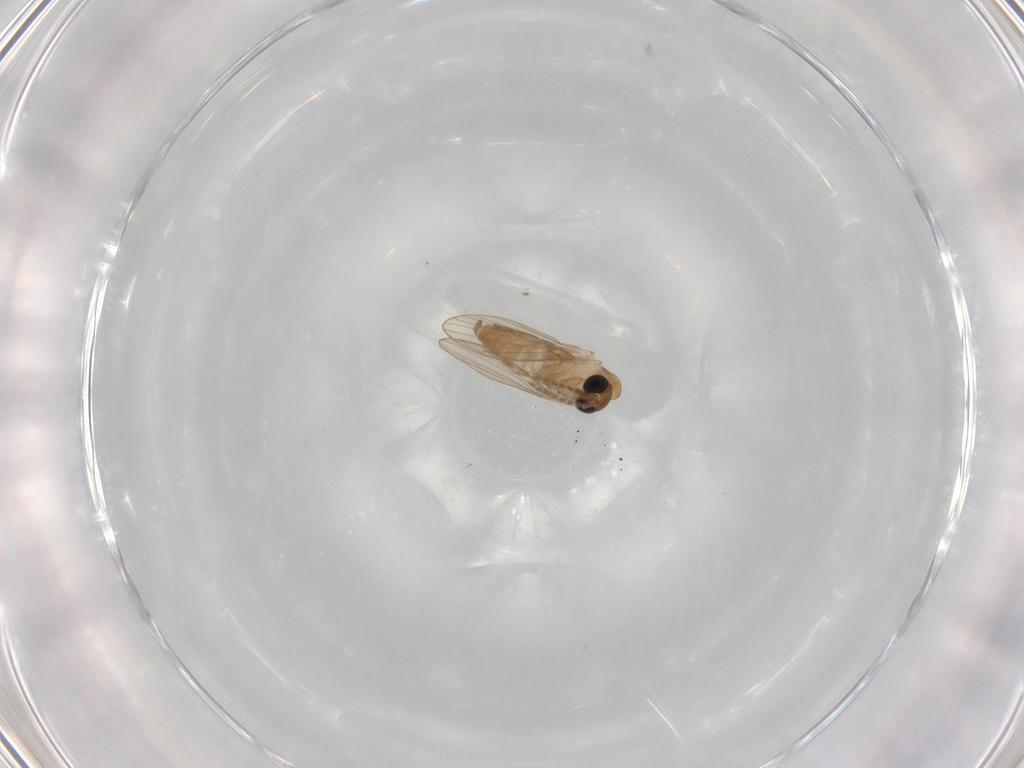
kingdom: Animalia
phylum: Arthropoda
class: Insecta
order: Diptera
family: Psychodidae
